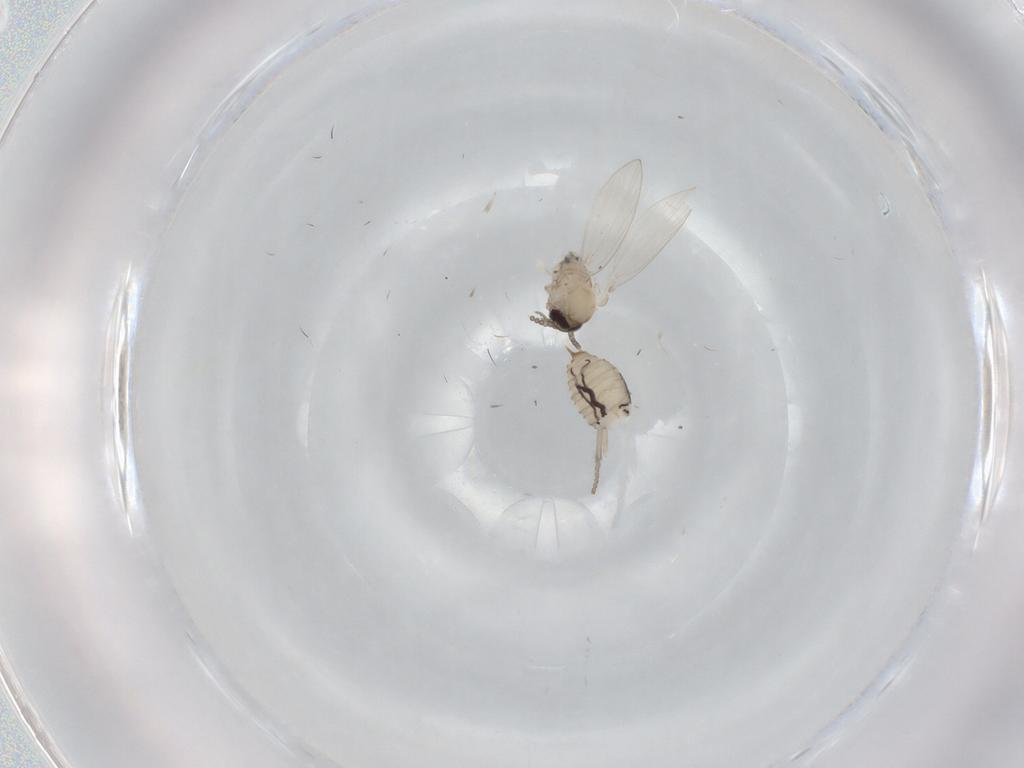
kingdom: Animalia
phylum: Arthropoda
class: Insecta
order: Diptera
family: Psychodidae
